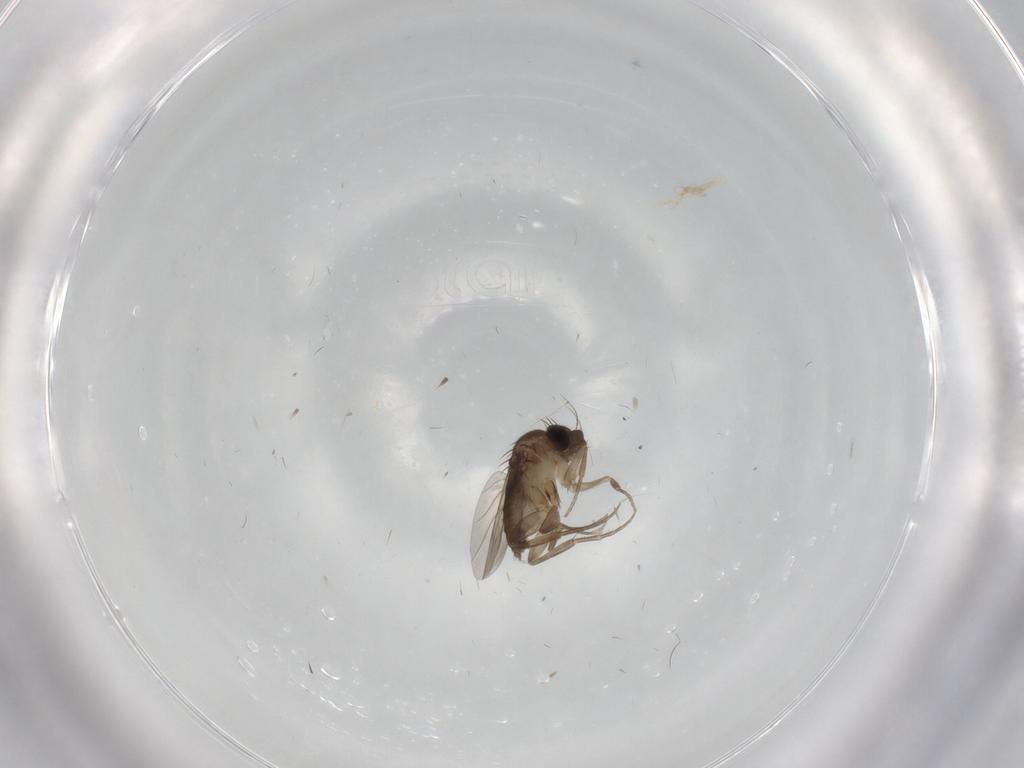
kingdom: Animalia
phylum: Arthropoda
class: Insecta
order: Diptera
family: Phoridae
